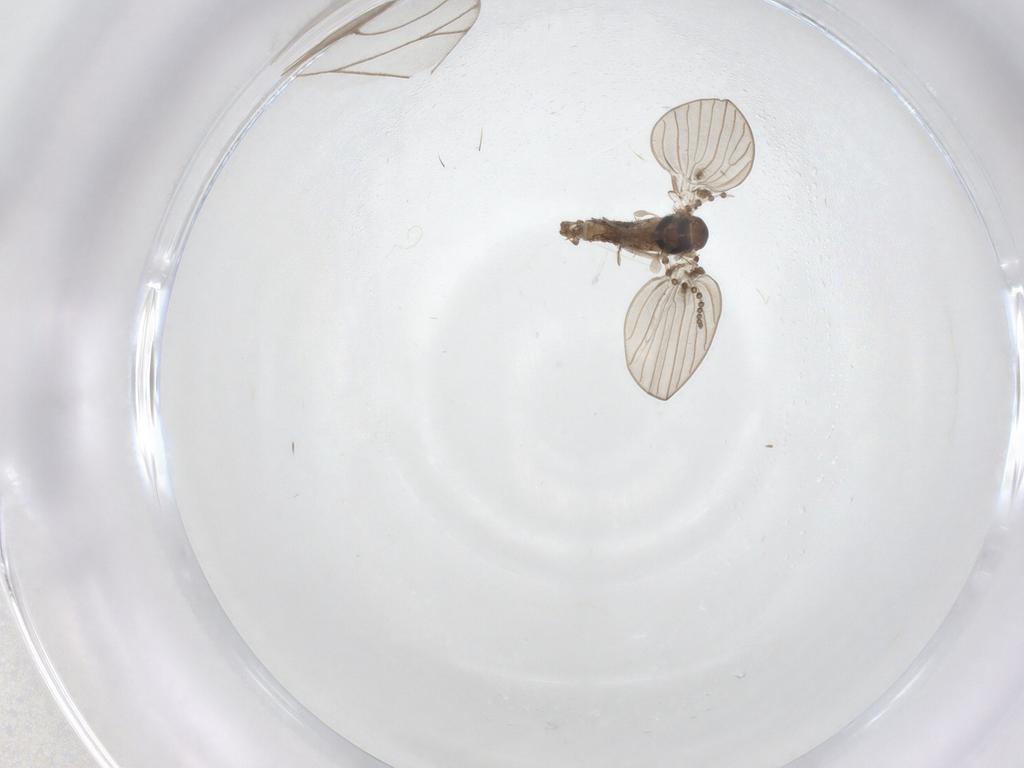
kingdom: Animalia
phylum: Arthropoda
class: Insecta
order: Diptera
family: Psychodidae
